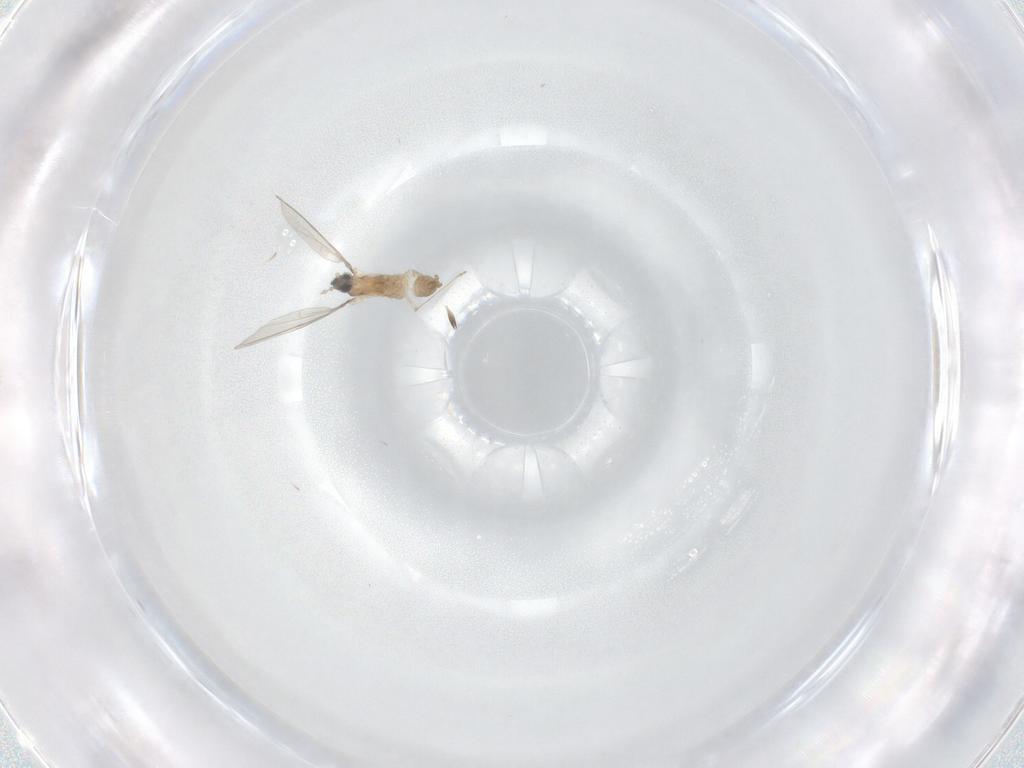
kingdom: Animalia
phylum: Arthropoda
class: Insecta
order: Diptera
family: Cecidomyiidae
